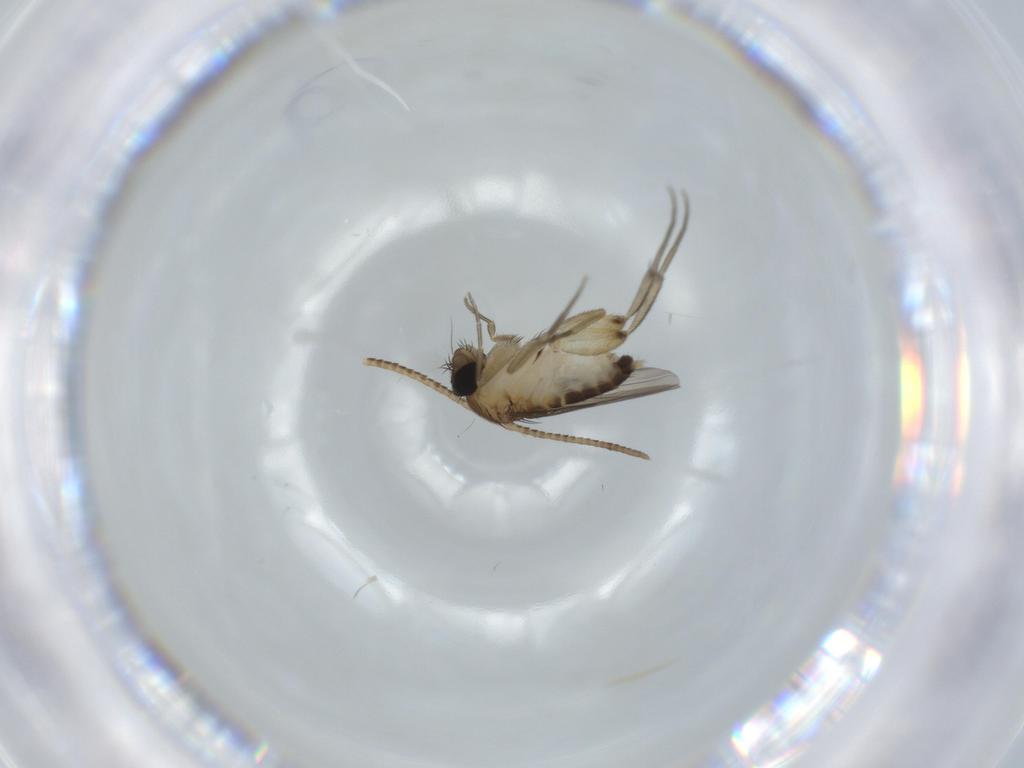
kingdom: Animalia
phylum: Arthropoda
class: Insecta
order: Diptera
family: Phoridae
